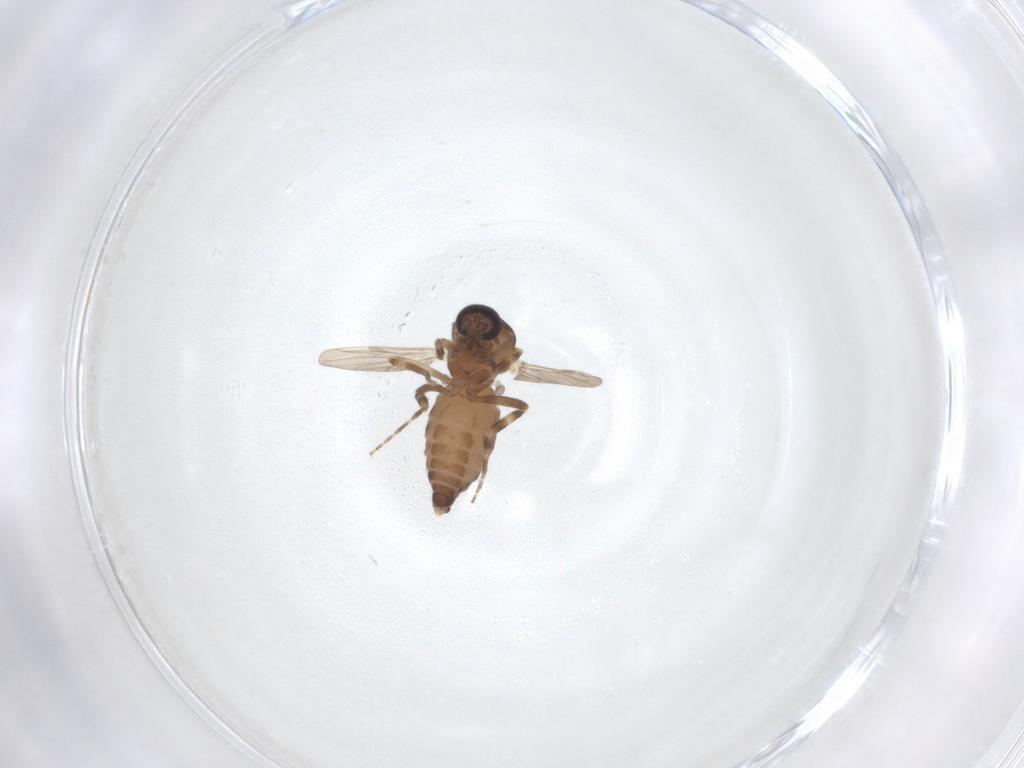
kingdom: Animalia
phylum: Arthropoda
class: Insecta
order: Diptera
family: Ceratopogonidae
